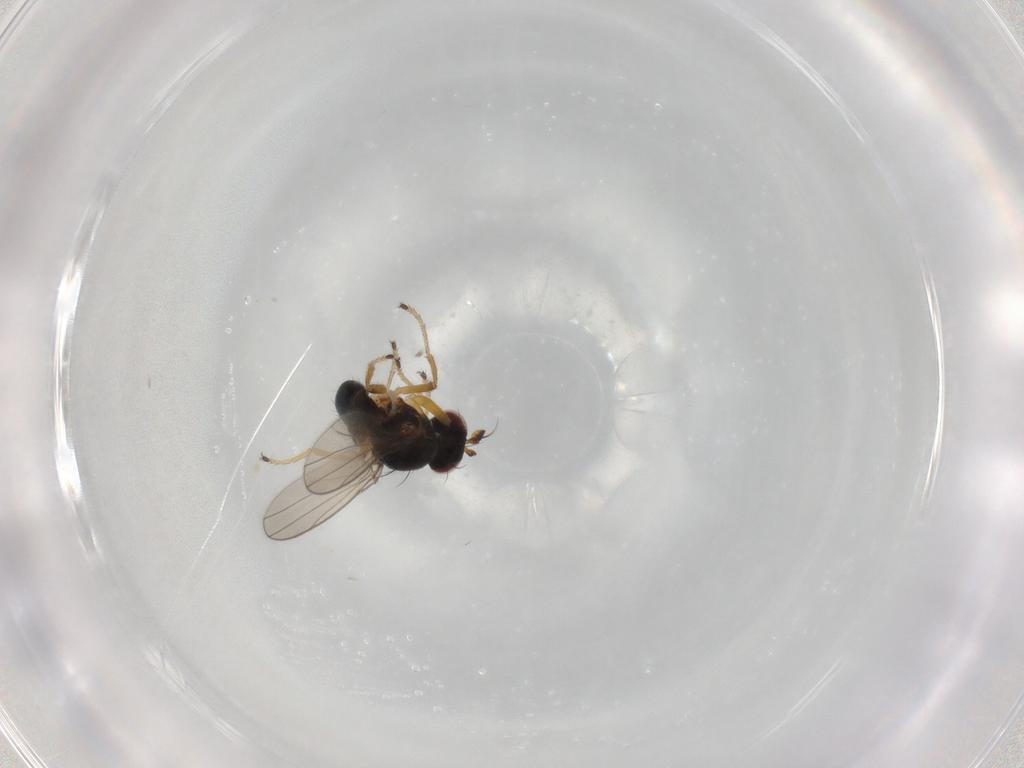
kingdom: Animalia
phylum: Arthropoda
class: Insecta
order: Diptera
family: Ephydridae
